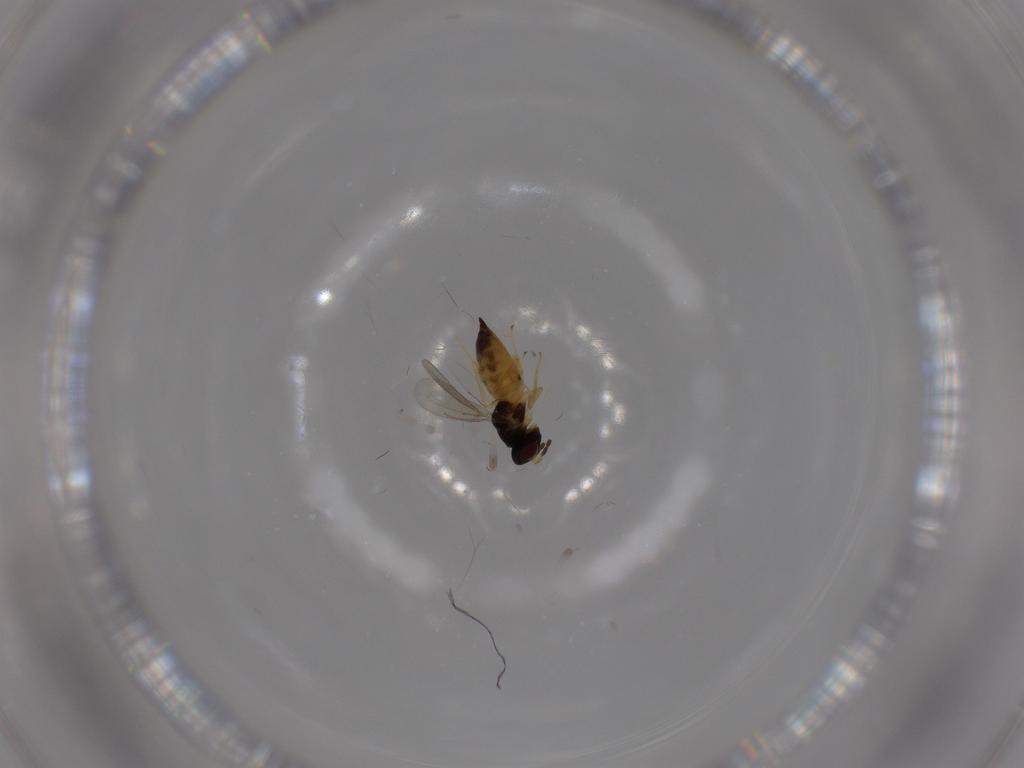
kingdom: Animalia
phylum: Arthropoda
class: Insecta
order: Hymenoptera
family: Eulophidae
